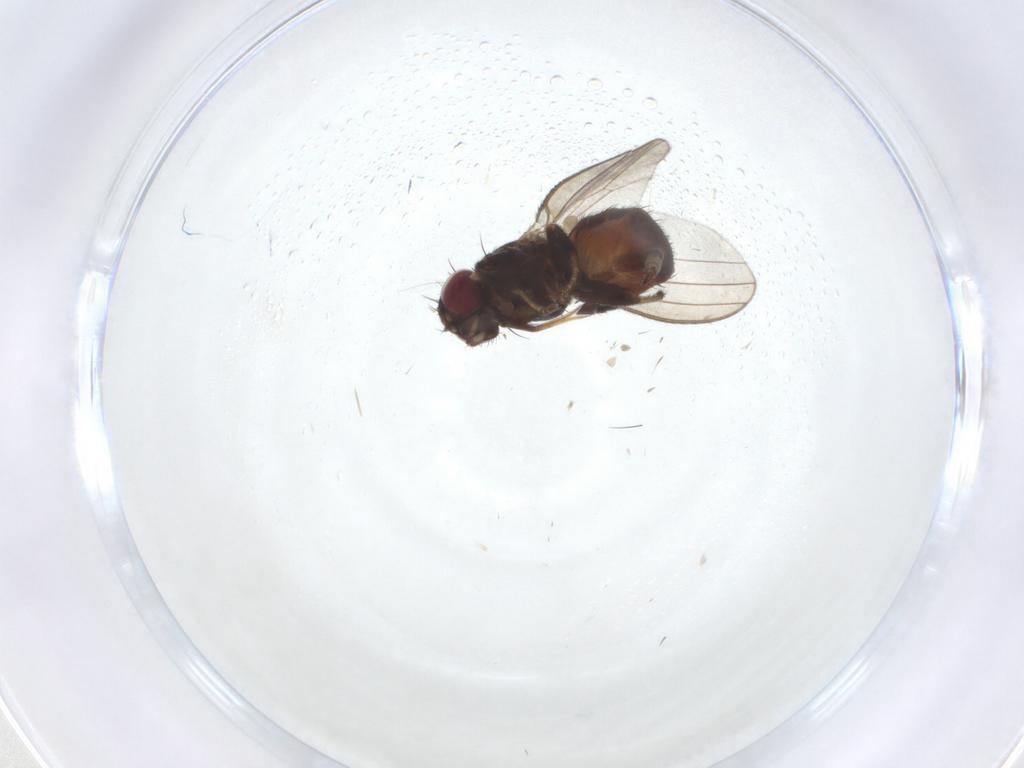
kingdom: Animalia
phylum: Arthropoda
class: Insecta
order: Diptera
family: Milichiidae
